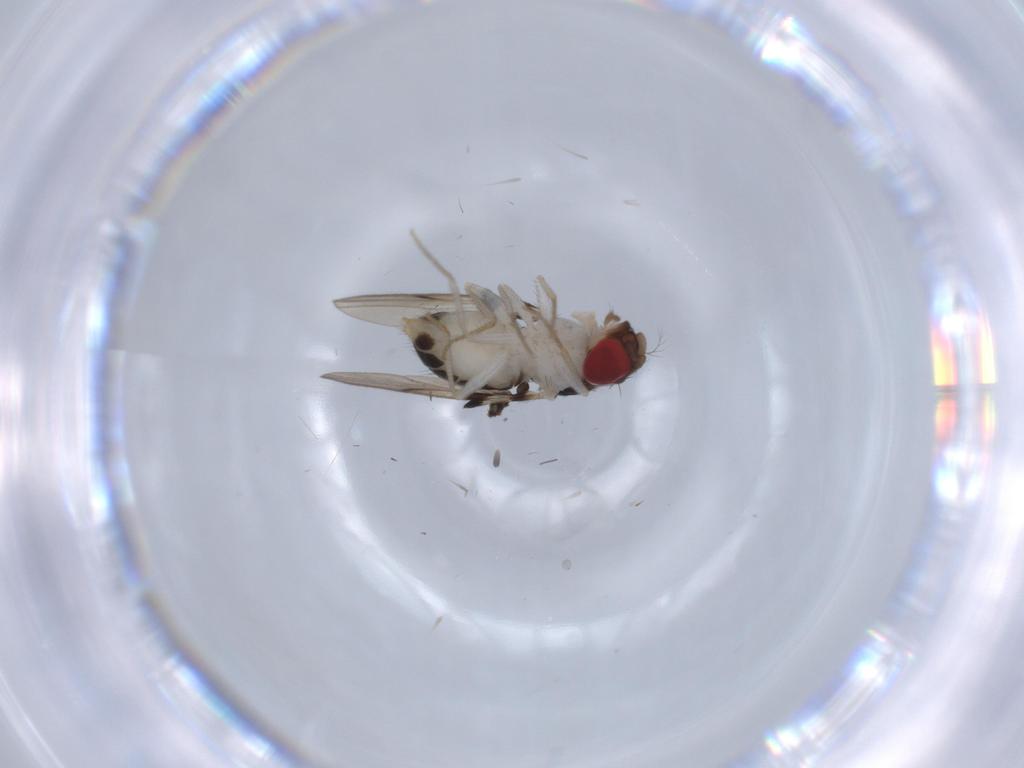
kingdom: Animalia
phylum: Arthropoda
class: Insecta
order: Diptera
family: Drosophilidae
